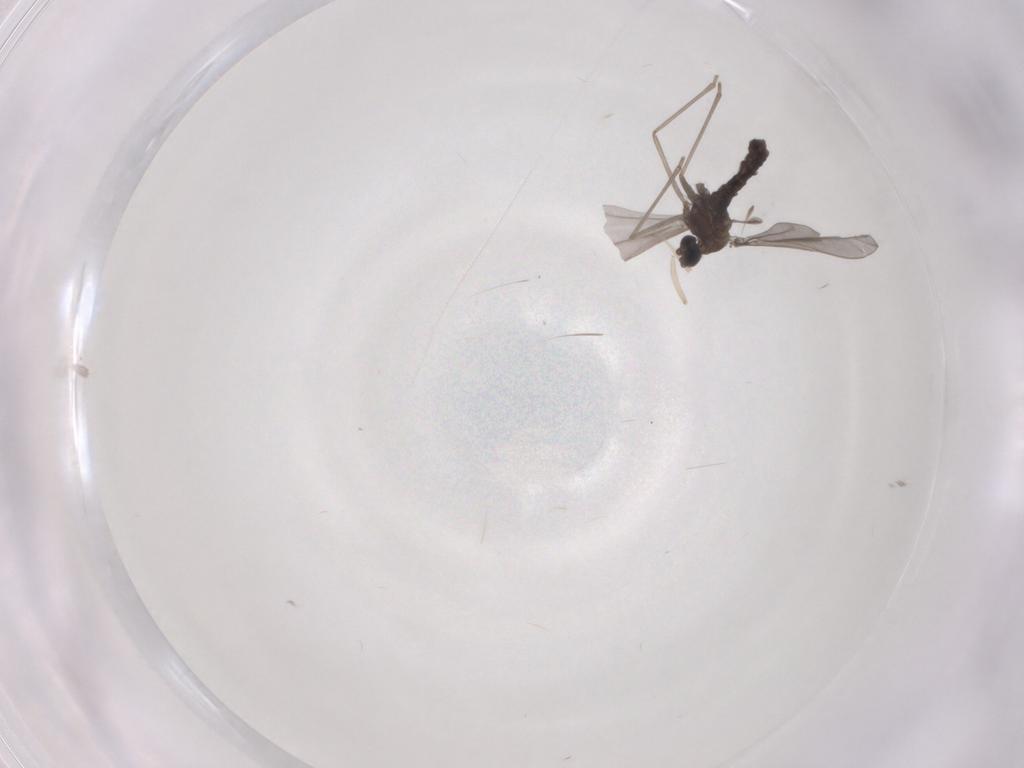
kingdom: Animalia
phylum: Arthropoda
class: Insecta
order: Diptera
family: Cecidomyiidae
